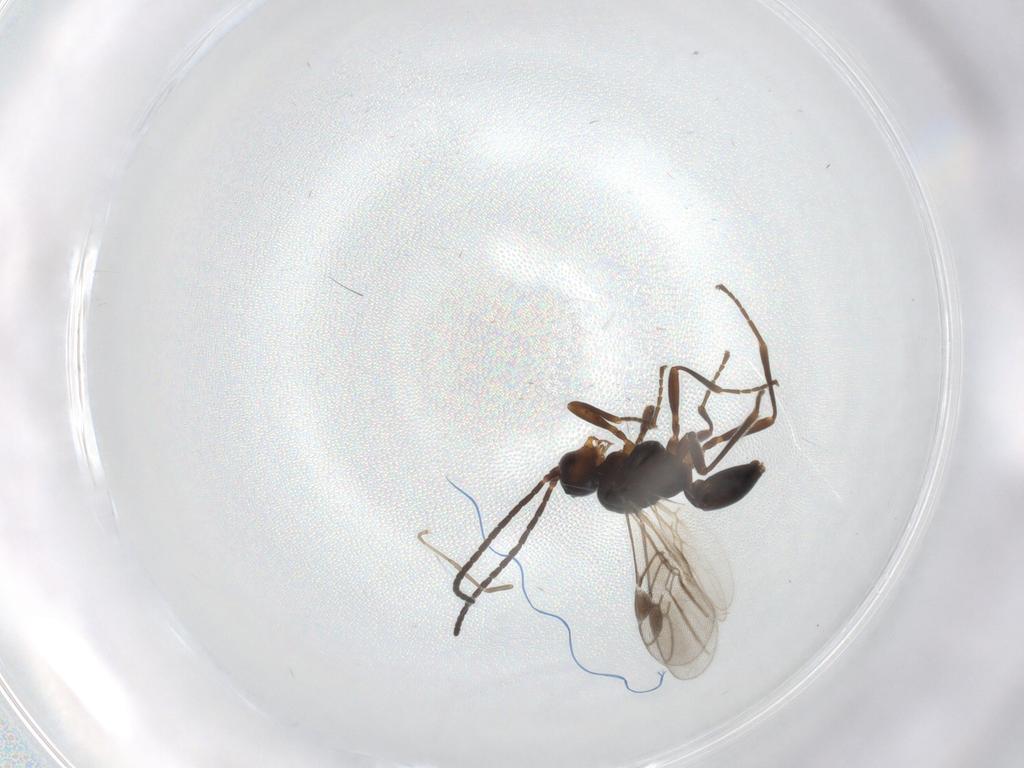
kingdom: Animalia
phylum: Arthropoda
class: Insecta
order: Hymenoptera
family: Braconidae
